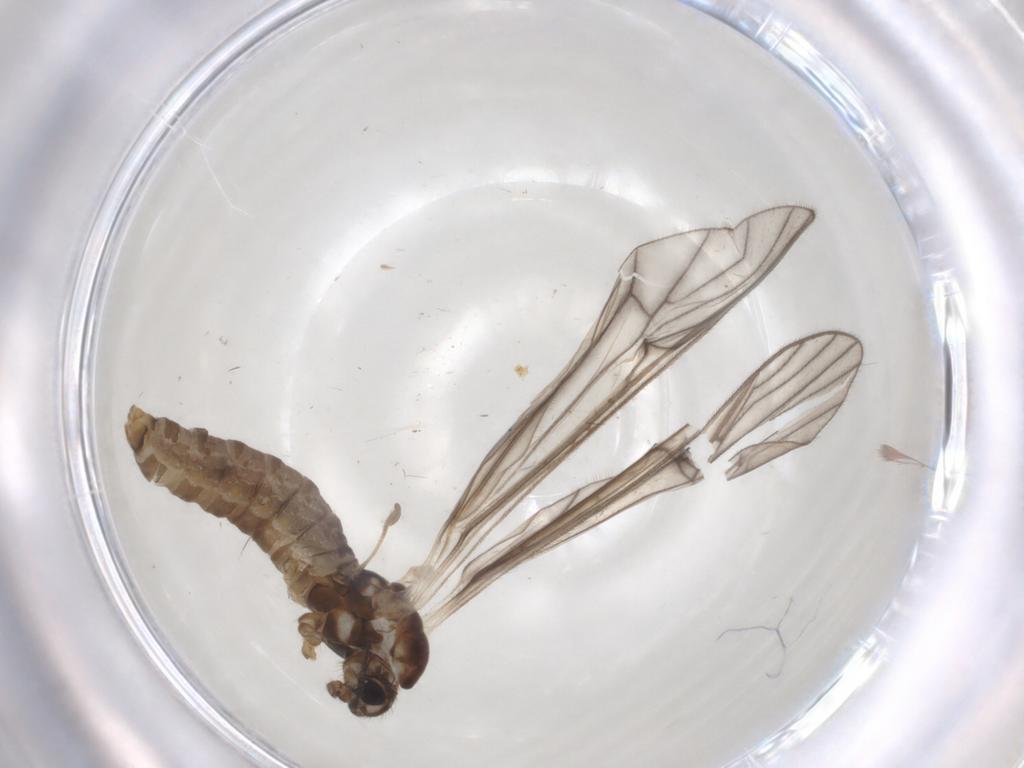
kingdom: Animalia
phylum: Arthropoda
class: Insecta
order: Diptera
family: Limoniidae
